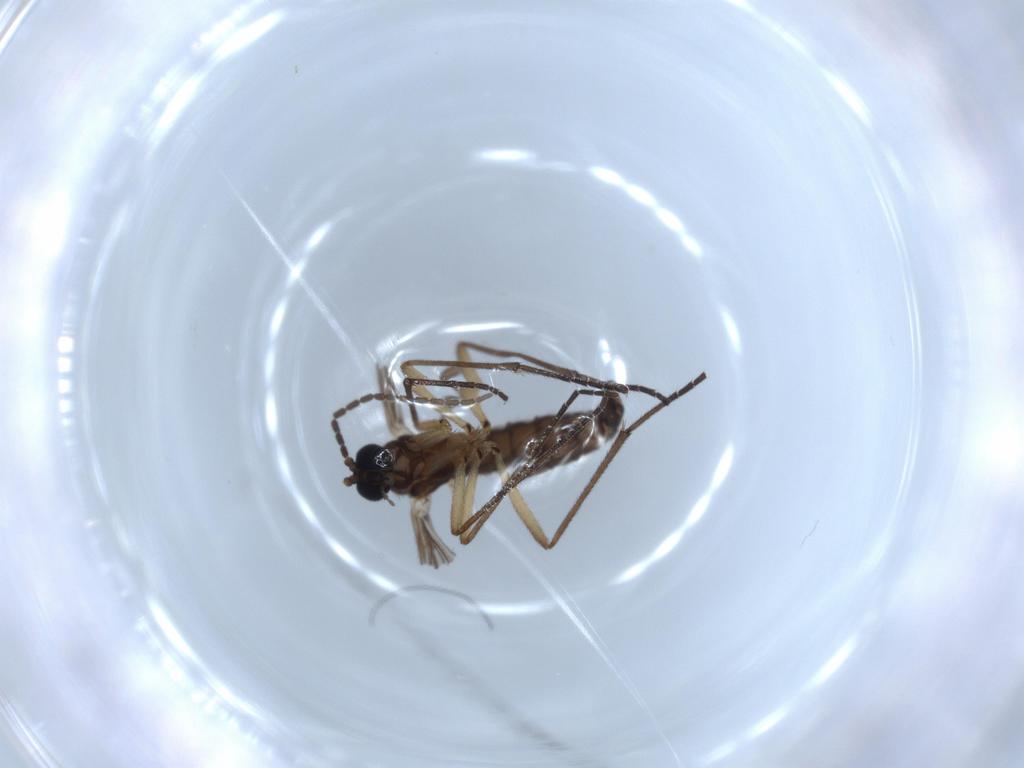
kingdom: Animalia
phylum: Arthropoda
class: Insecta
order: Diptera
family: Sciaridae
